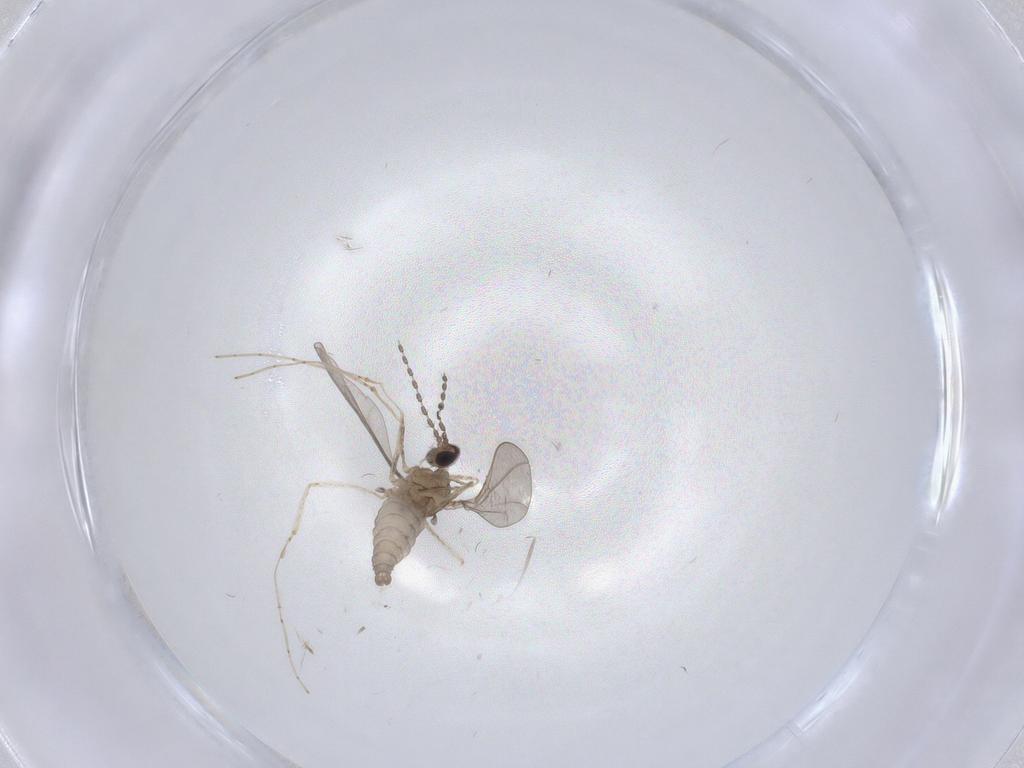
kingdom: Animalia
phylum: Arthropoda
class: Insecta
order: Diptera
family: Cecidomyiidae
